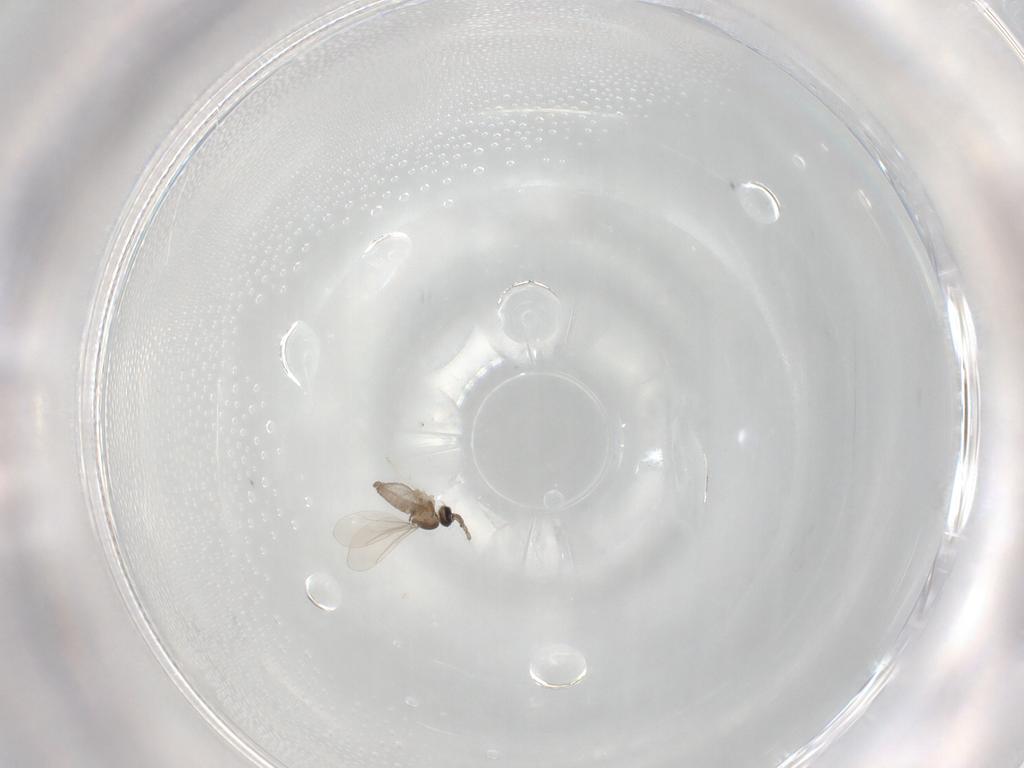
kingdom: Animalia
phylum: Arthropoda
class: Insecta
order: Diptera
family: Cecidomyiidae
